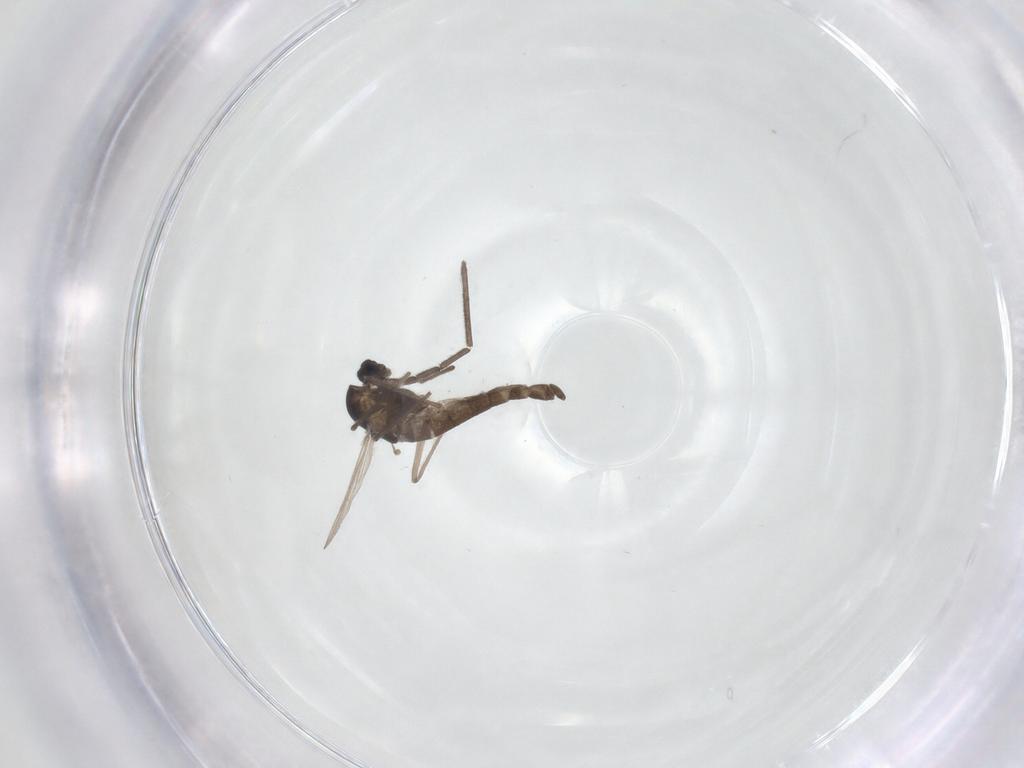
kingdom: Animalia
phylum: Arthropoda
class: Insecta
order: Diptera
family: Chironomidae
